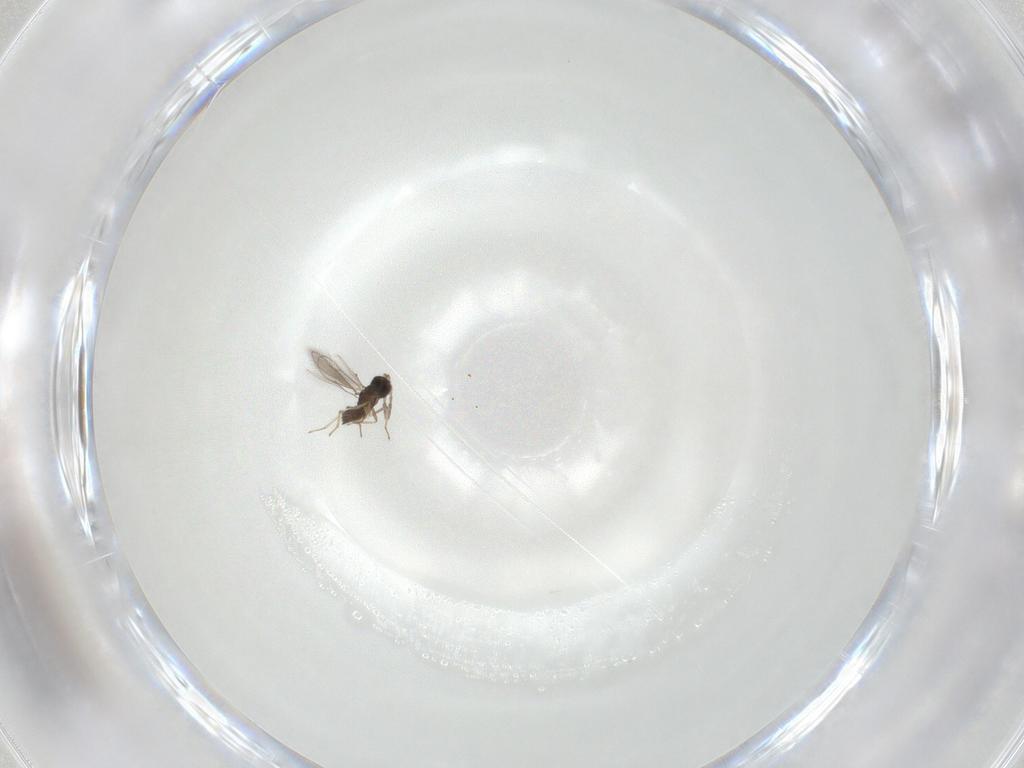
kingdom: Animalia
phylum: Arthropoda
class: Insecta
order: Hymenoptera
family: Eulophidae
